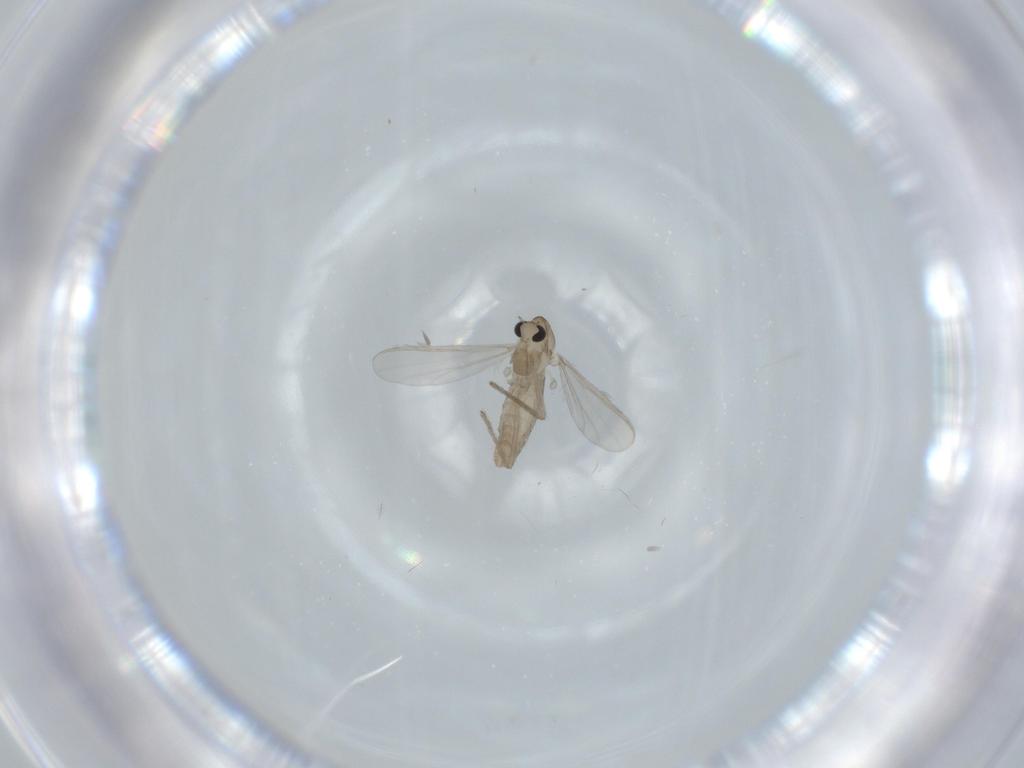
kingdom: Animalia
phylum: Arthropoda
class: Insecta
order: Diptera
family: Chironomidae
